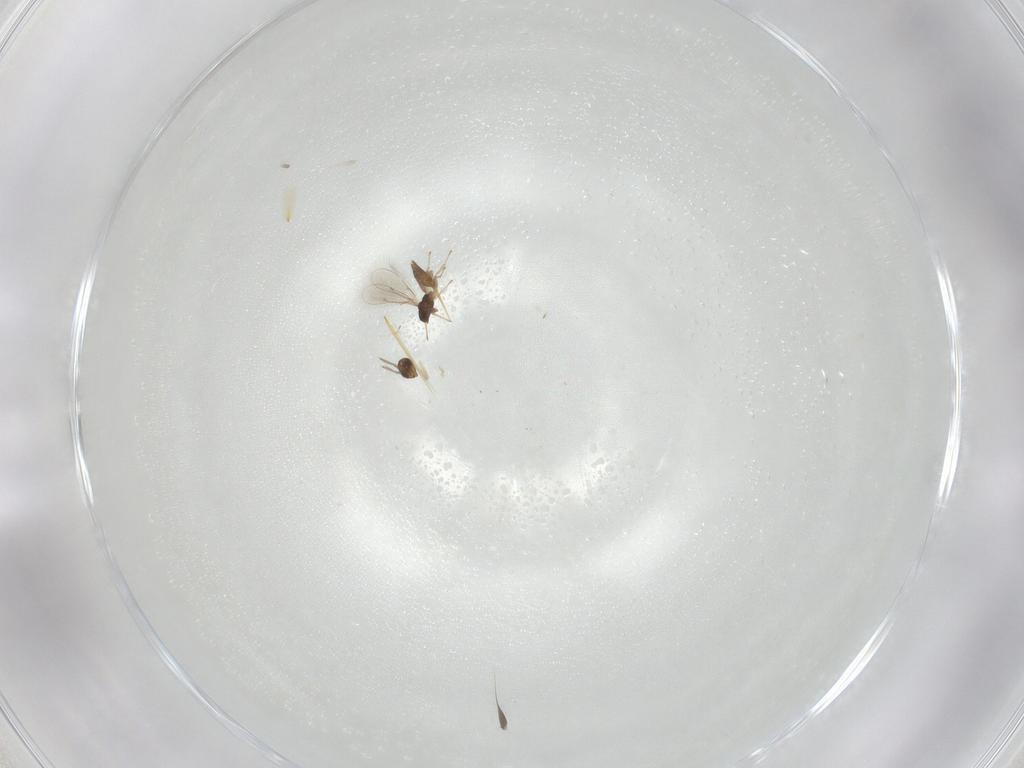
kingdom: Animalia
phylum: Arthropoda
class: Insecta
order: Hymenoptera
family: Eulophidae
